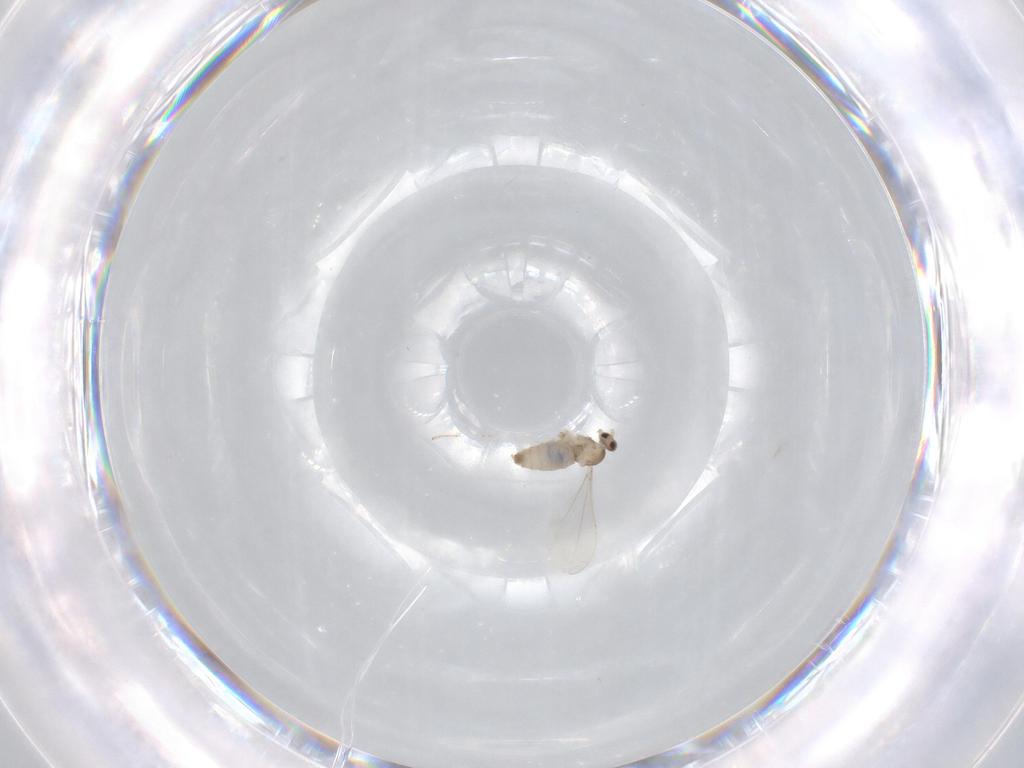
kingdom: Animalia
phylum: Arthropoda
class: Insecta
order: Diptera
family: Cecidomyiidae
